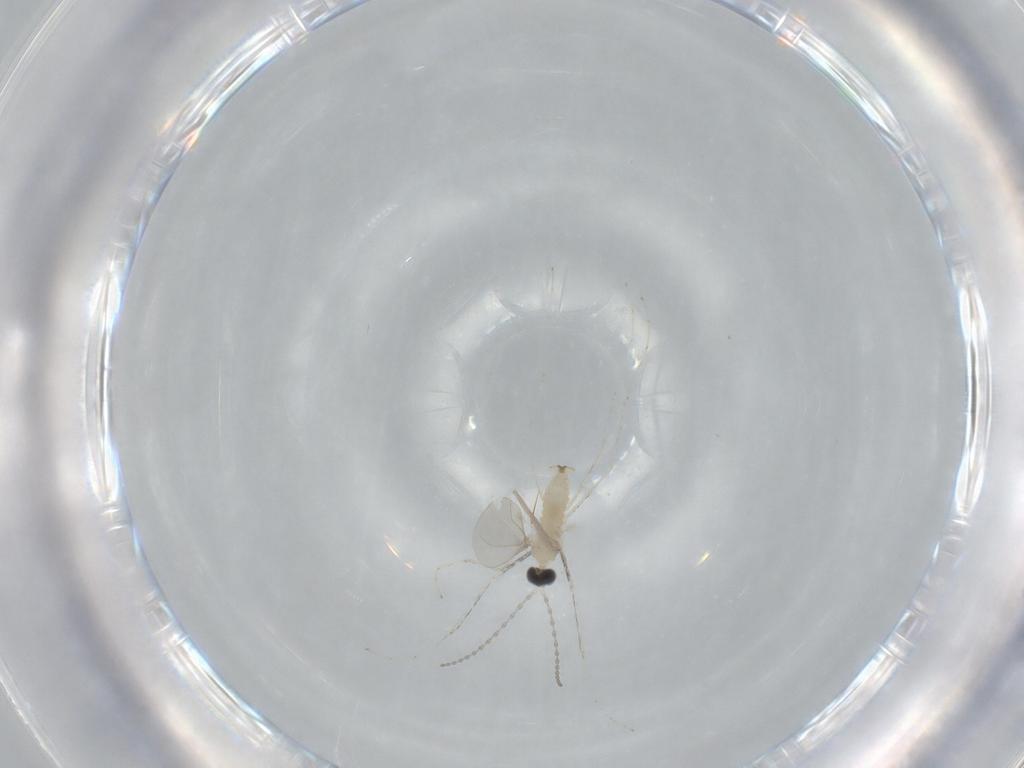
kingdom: Animalia
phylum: Arthropoda
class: Insecta
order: Diptera
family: Cecidomyiidae
